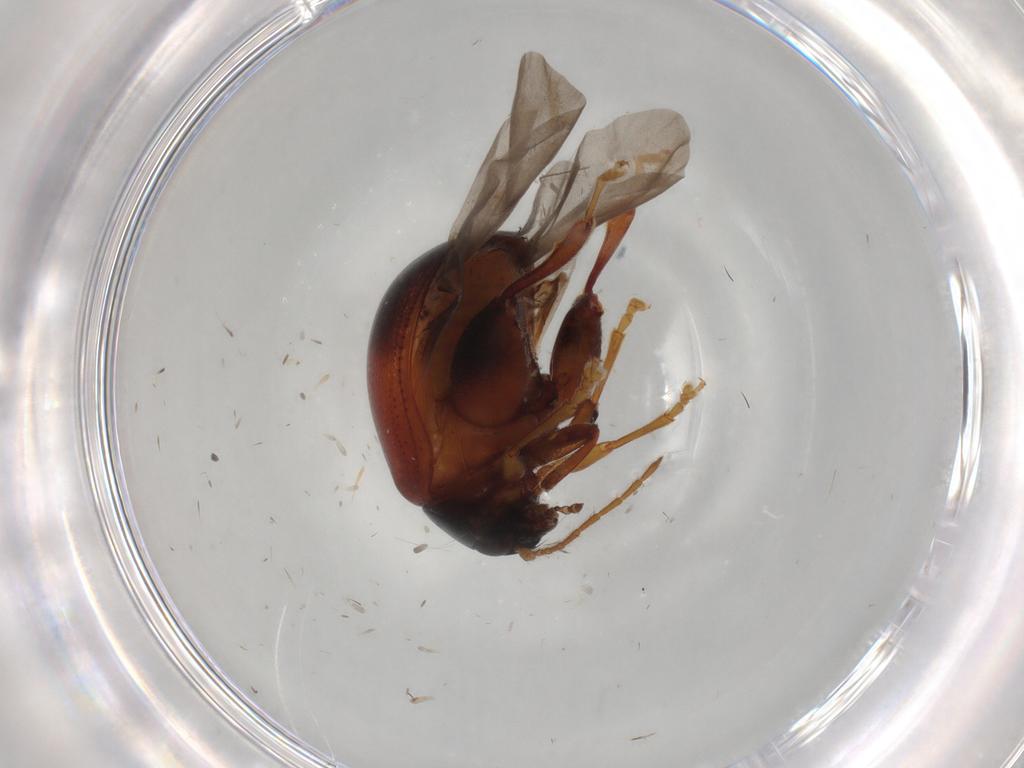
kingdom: Animalia
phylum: Arthropoda
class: Insecta
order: Coleoptera
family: Chrysomelidae
